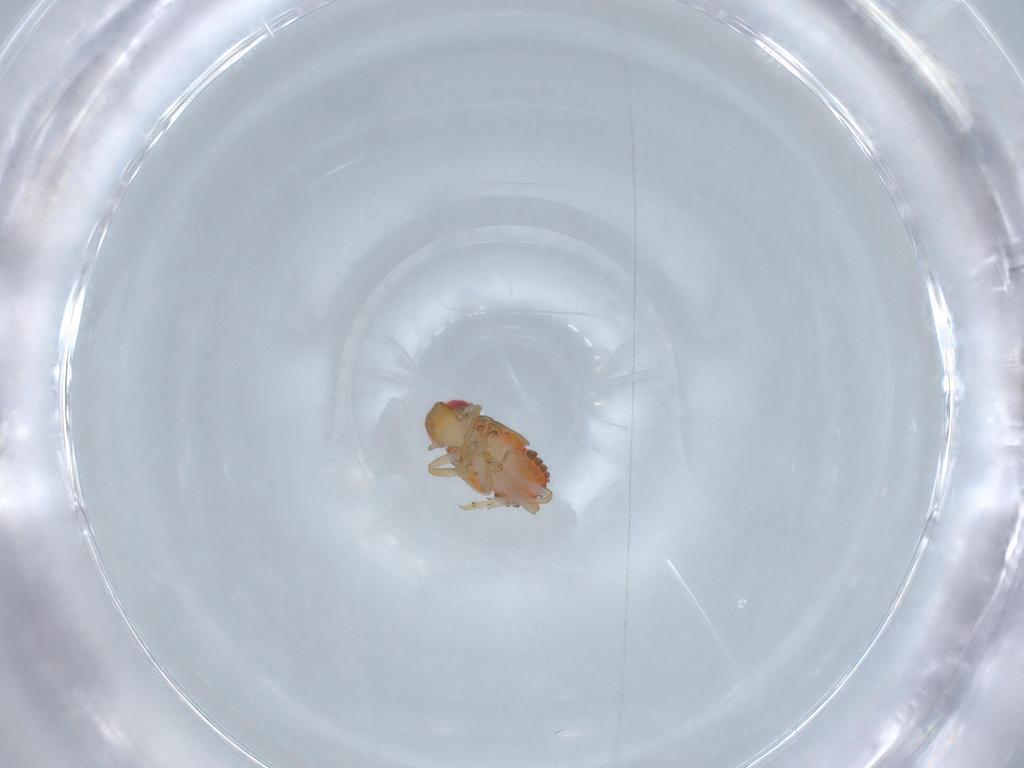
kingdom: Animalia
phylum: Arthropoda
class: Insecta
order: Hemiptera
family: Issidae
